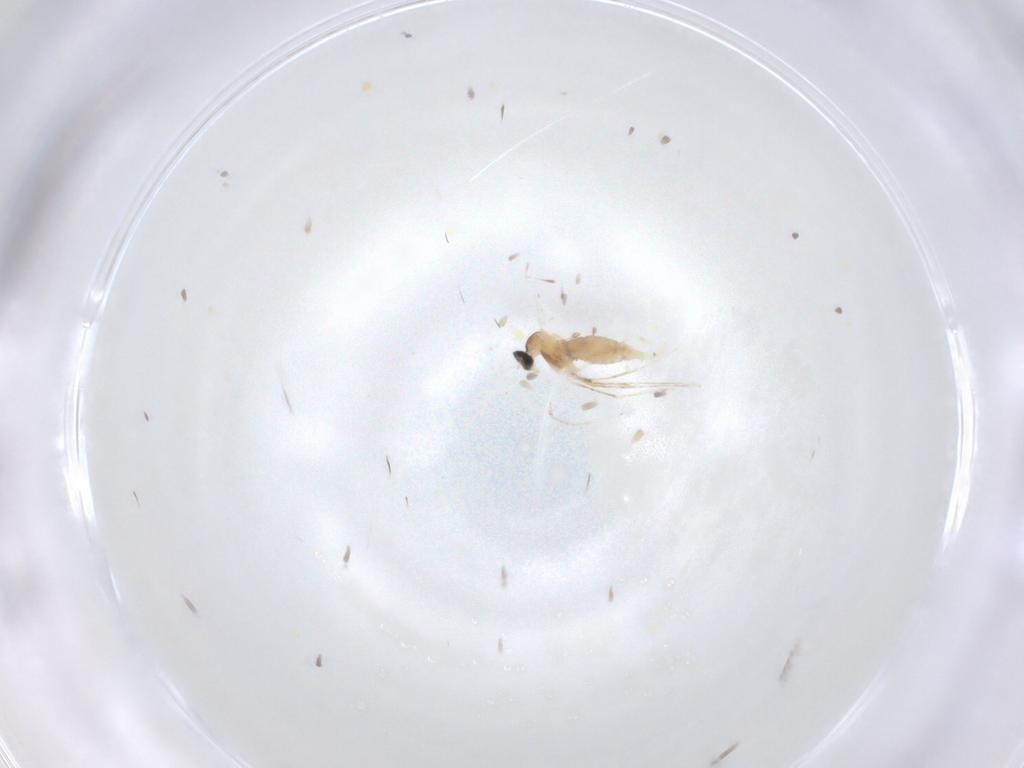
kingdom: Animalia
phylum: Arthropoda
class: Insecta
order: Diptera
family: Cecidomyiidae
